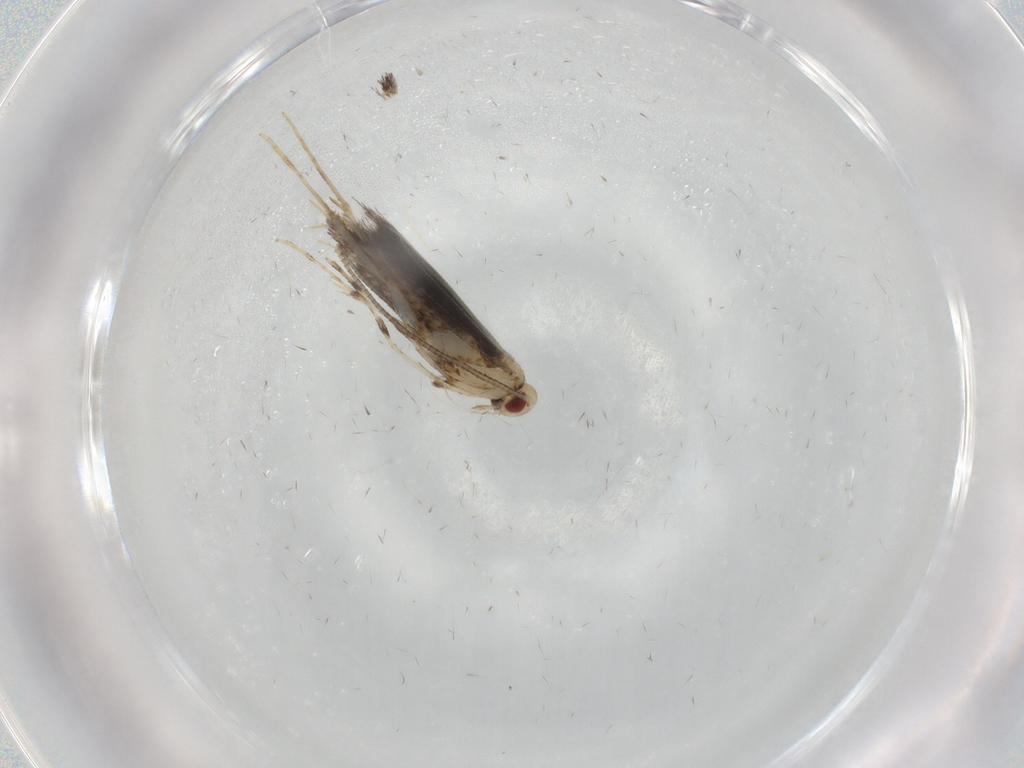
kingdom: Animalia
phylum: Arthropoda
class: Insecta
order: Lepidoptera
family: Gracillariidae
